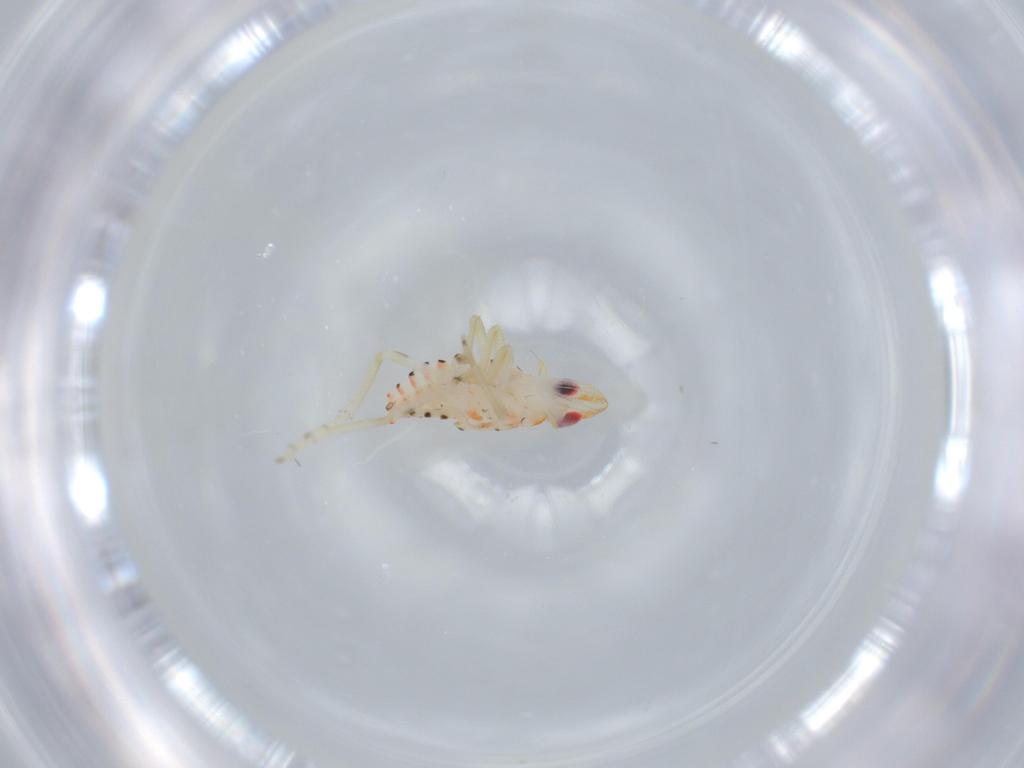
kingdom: Animalia
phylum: Arthropoda
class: Insecta
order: Hemiptera
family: Tropiduchidae
